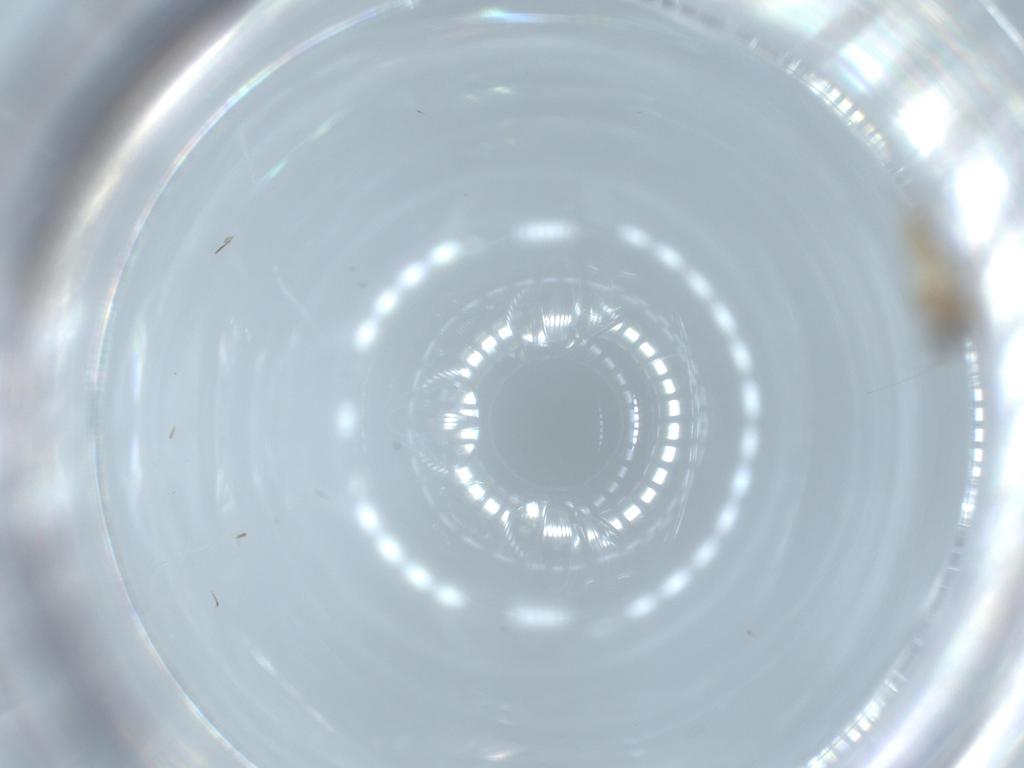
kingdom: Animalia
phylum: Arthropoda
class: Insecta
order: Diptera
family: Cecidomyiidae
